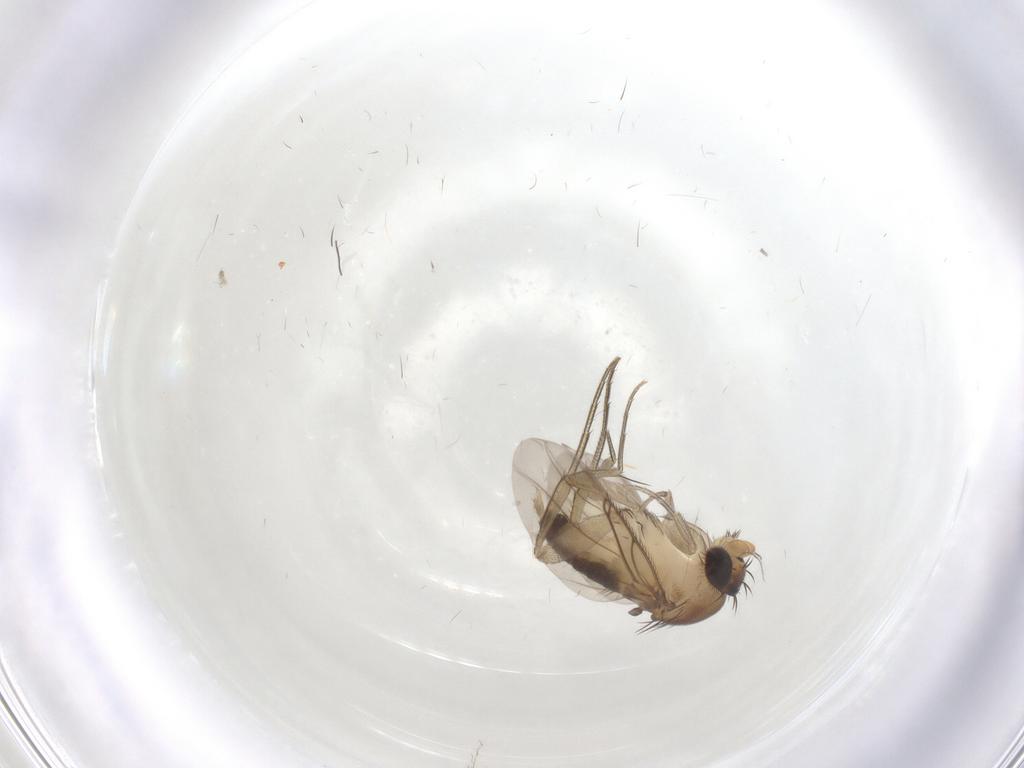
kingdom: Animalia
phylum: Arthropoda
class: Insecta
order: Diptera
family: Phoridae
